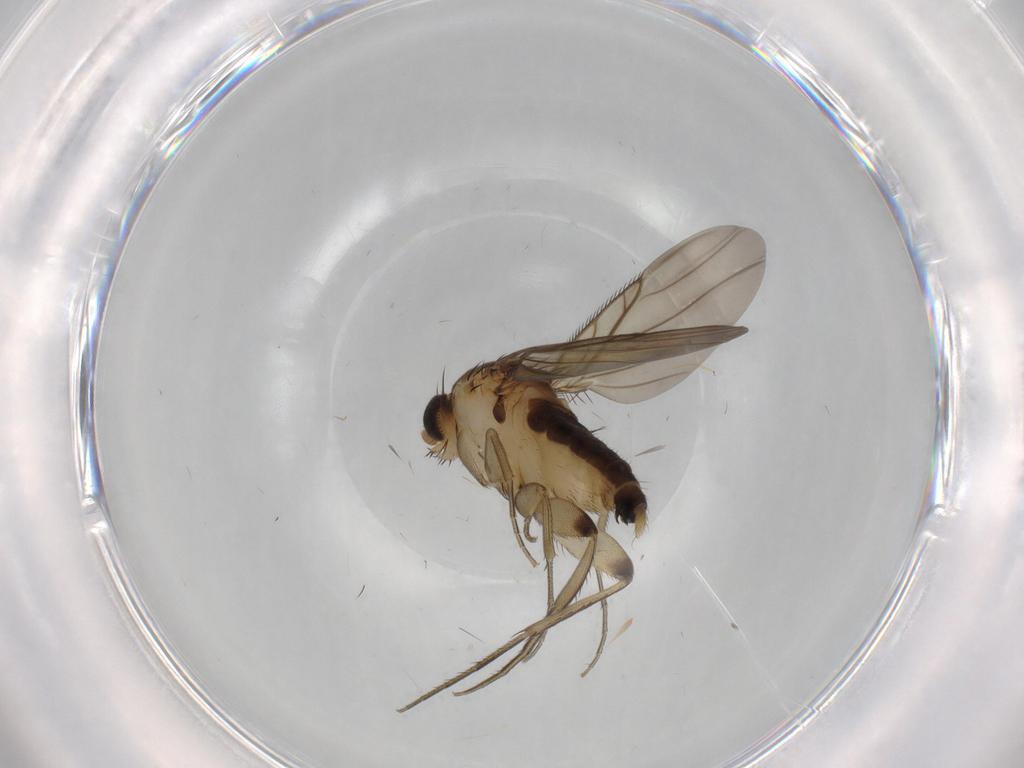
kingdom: Animalia
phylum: Arthropoda
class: Insecta
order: Diptera
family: Phoridae
